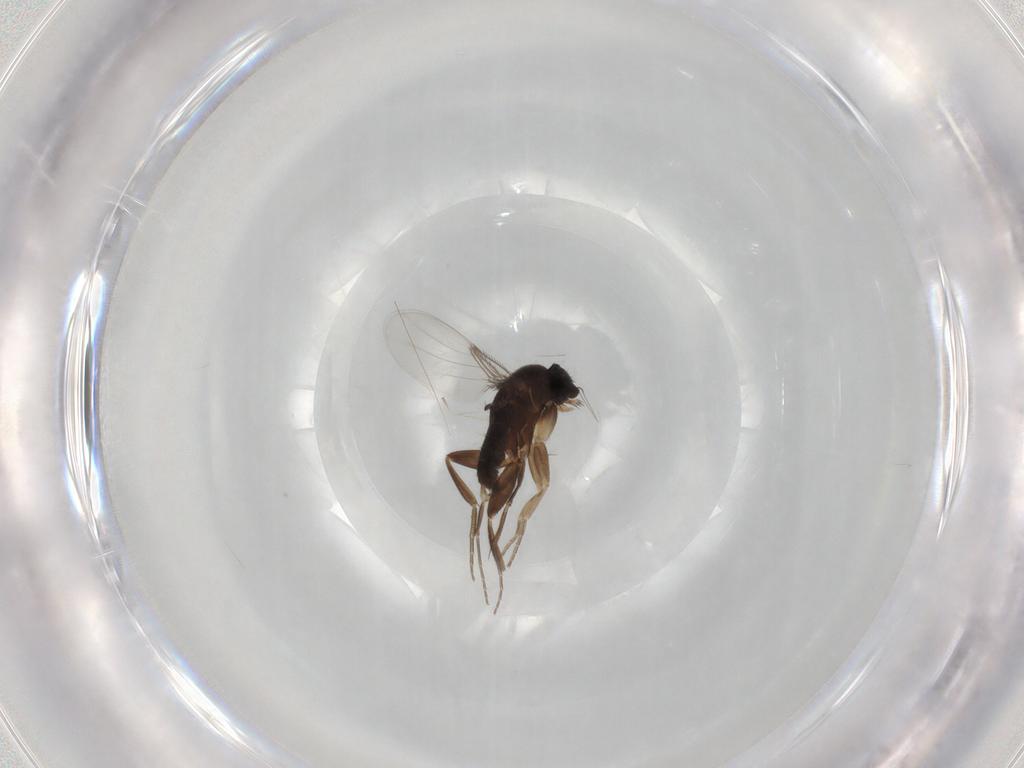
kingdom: Animalia
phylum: Arthropoda
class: Insecta
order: Diptera
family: Phoridae
